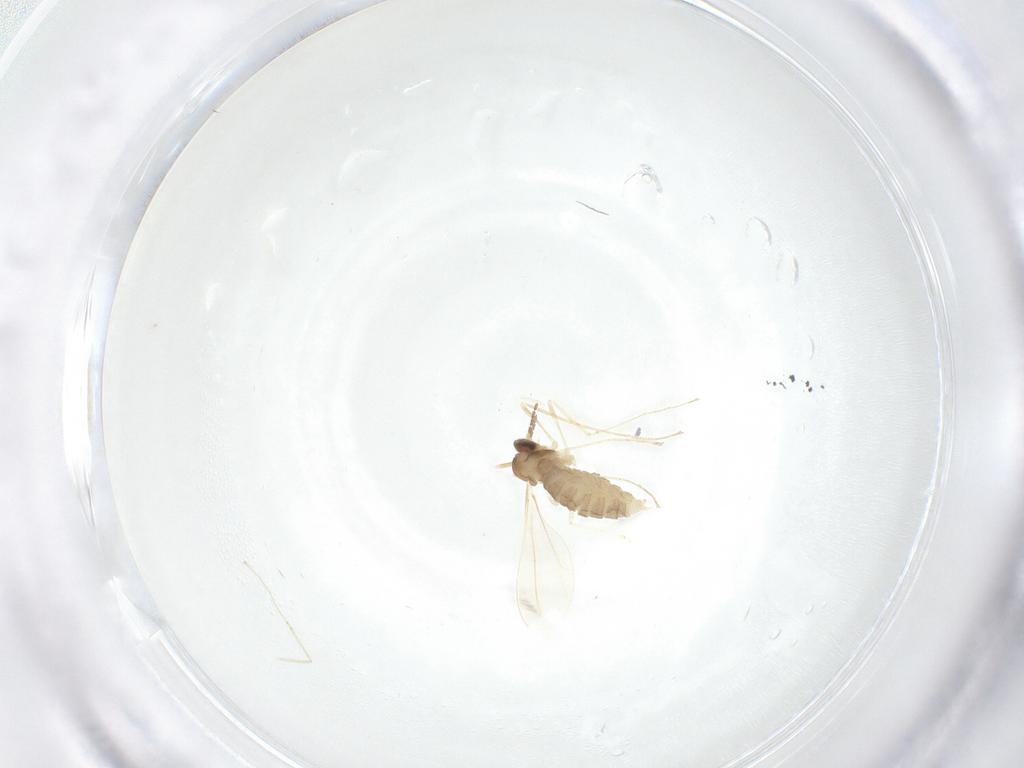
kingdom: Animalia
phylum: Arthropoda
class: Insecta
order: Diptera
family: Cecidomyiidae
